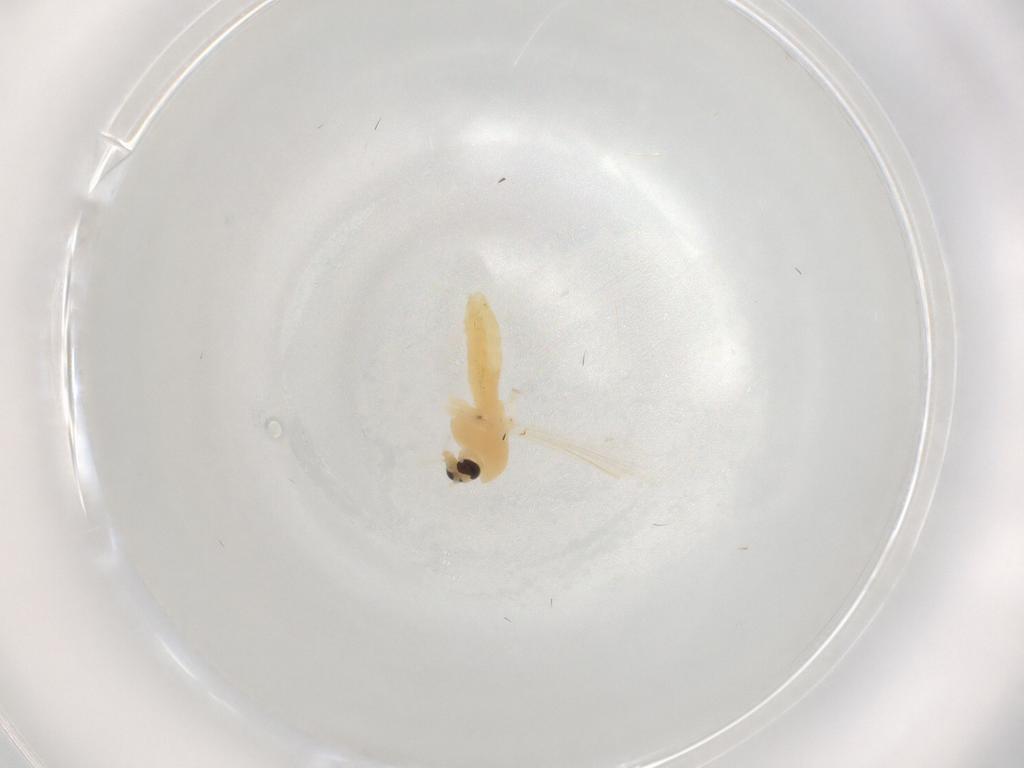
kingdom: Animalia
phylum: Arthropoda
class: Insecta
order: Diptera
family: Chironomidae
